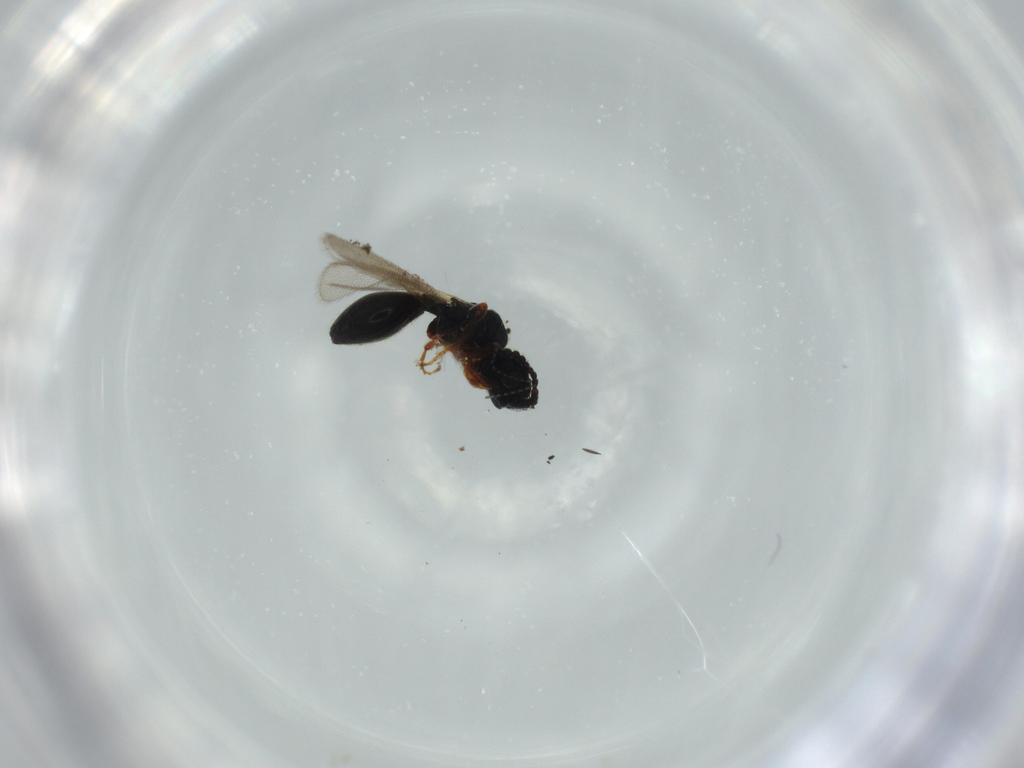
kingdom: Animalia
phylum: Arthropoda
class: Insecta
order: Hymenoptera
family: Diapriidae
